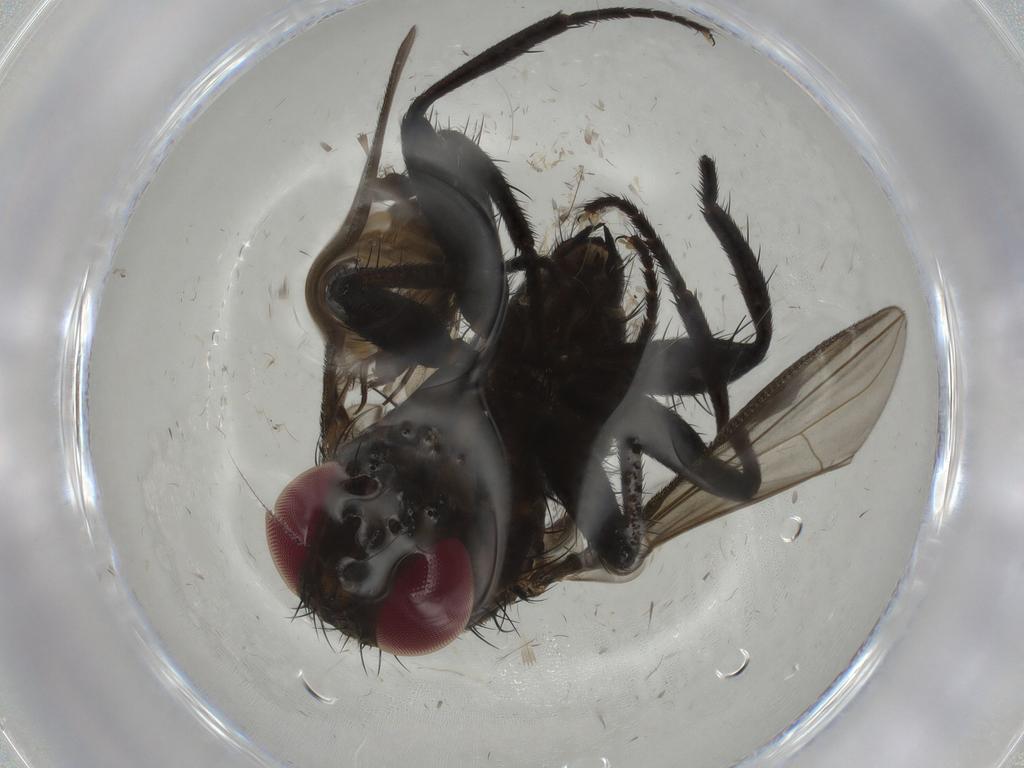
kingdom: Animalia
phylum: Arthropoda
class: Insecta
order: Diptera
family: Phoridae
